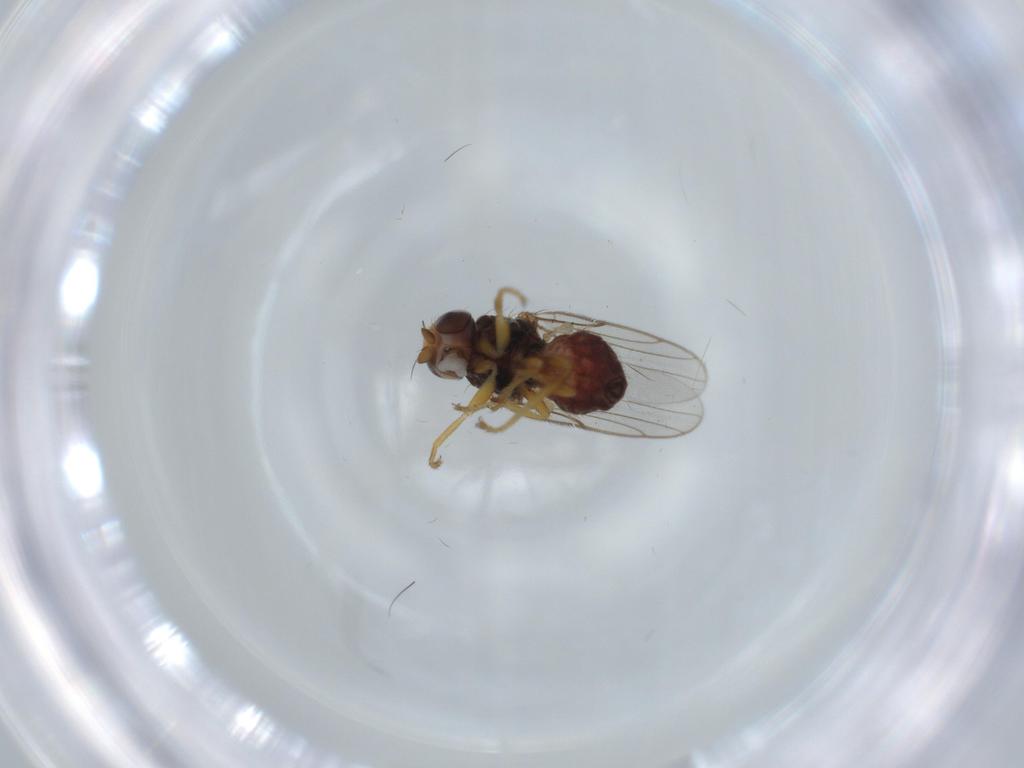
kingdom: Animalia
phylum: Arthropoda
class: Insecta
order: Diptera
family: Chloropidae
